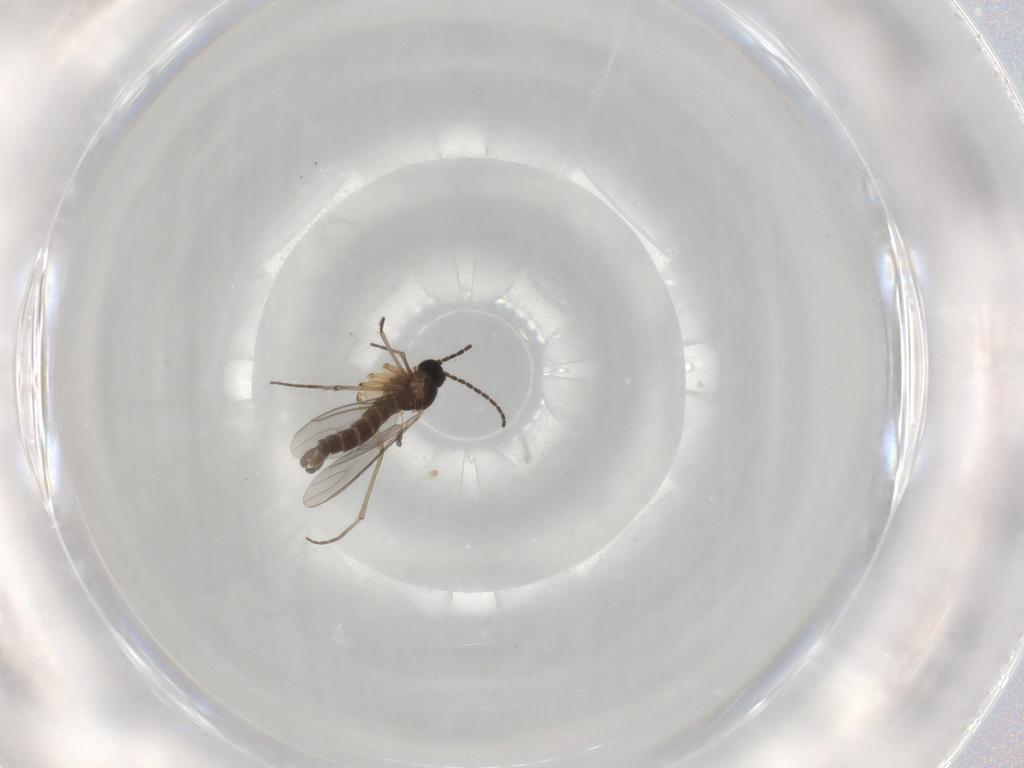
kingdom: Animalia
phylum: Arthropoda
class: Insecta
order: Diptera
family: Sciaridae
